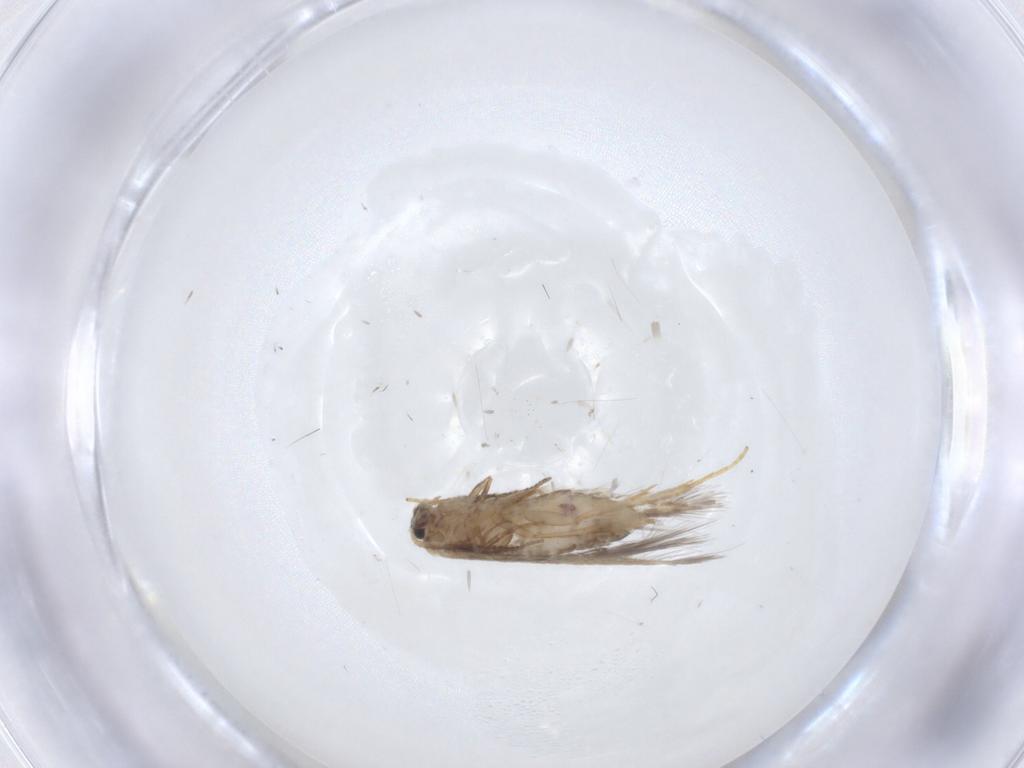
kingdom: Animalia
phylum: Arthropoda
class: Insecta
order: Lepidoptera
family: Nepticulidae
